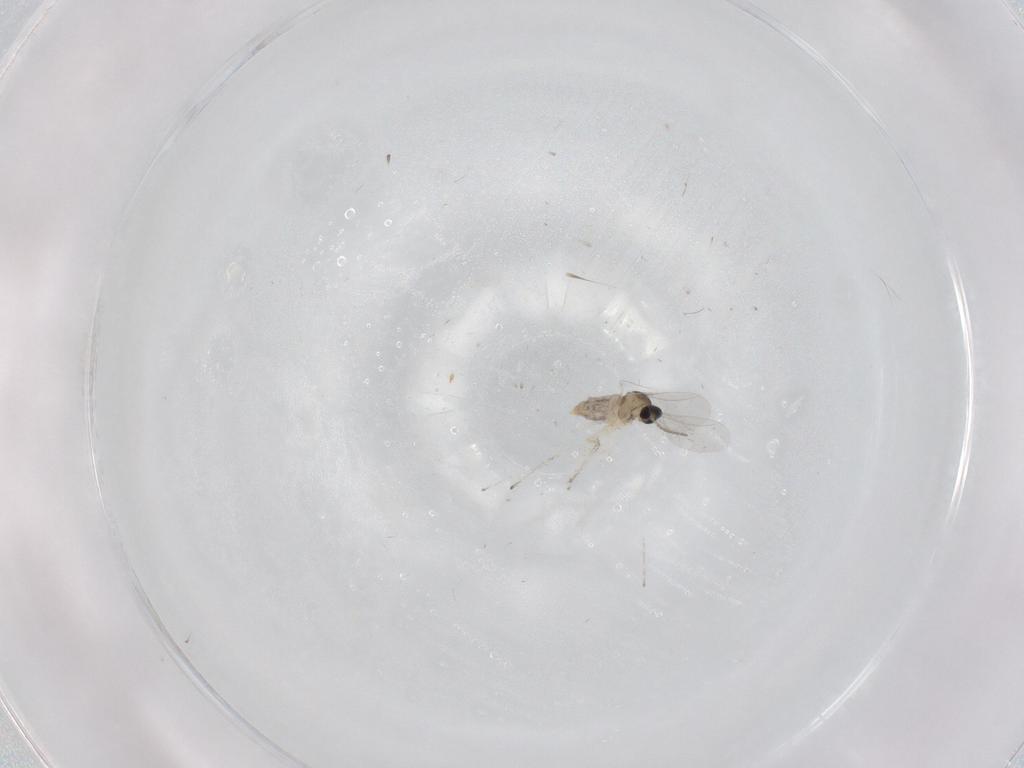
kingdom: Animalia
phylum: Arthropoda
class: Insecta
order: Diptera
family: Cecidomyiidae
